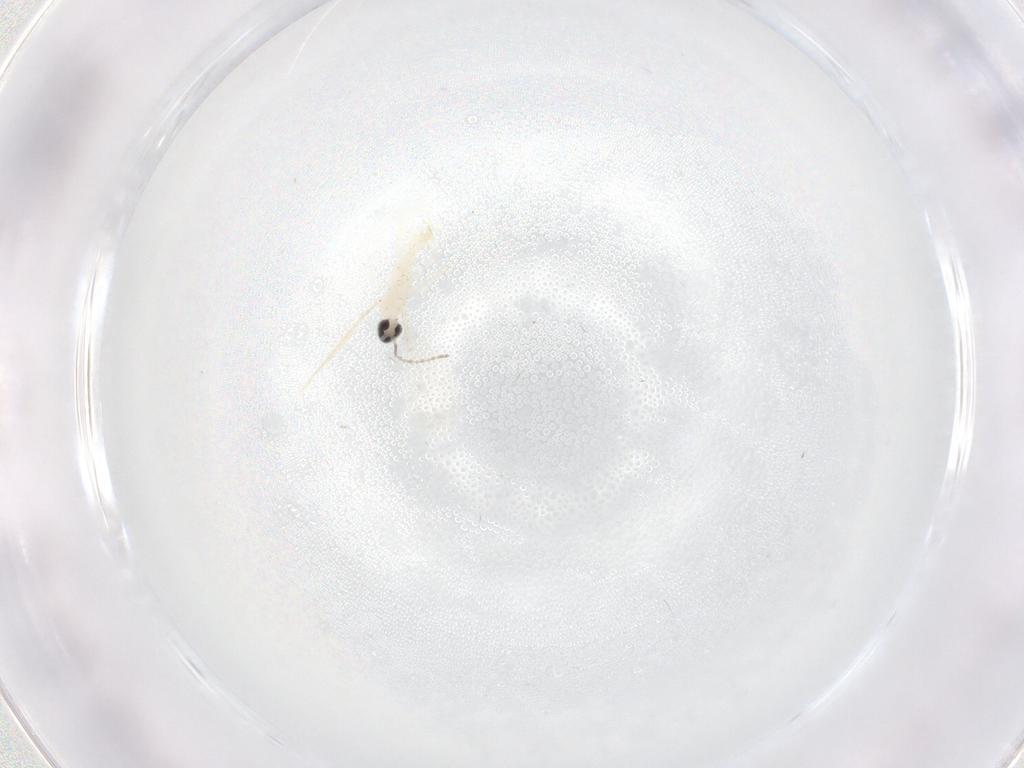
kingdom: Animalia
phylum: Arthropoda
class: Insecta
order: Diptera
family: Cecidomyiidae
